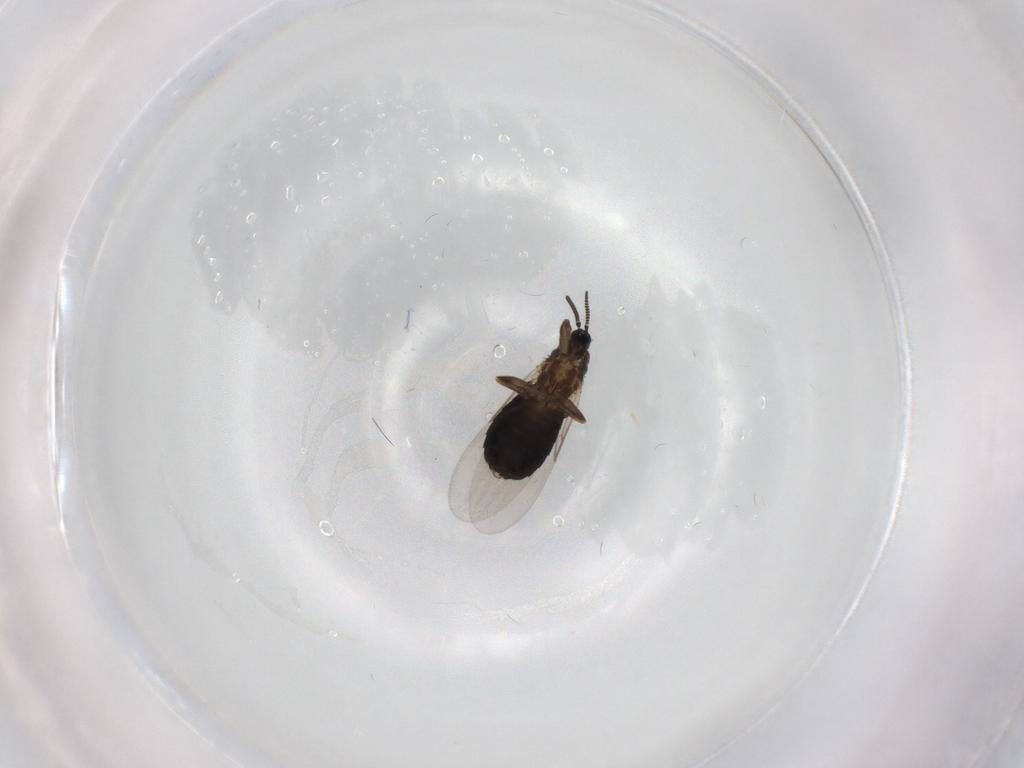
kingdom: Animalia
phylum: Arthropoda
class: Insecta
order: Diptera
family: Scatopsidae
